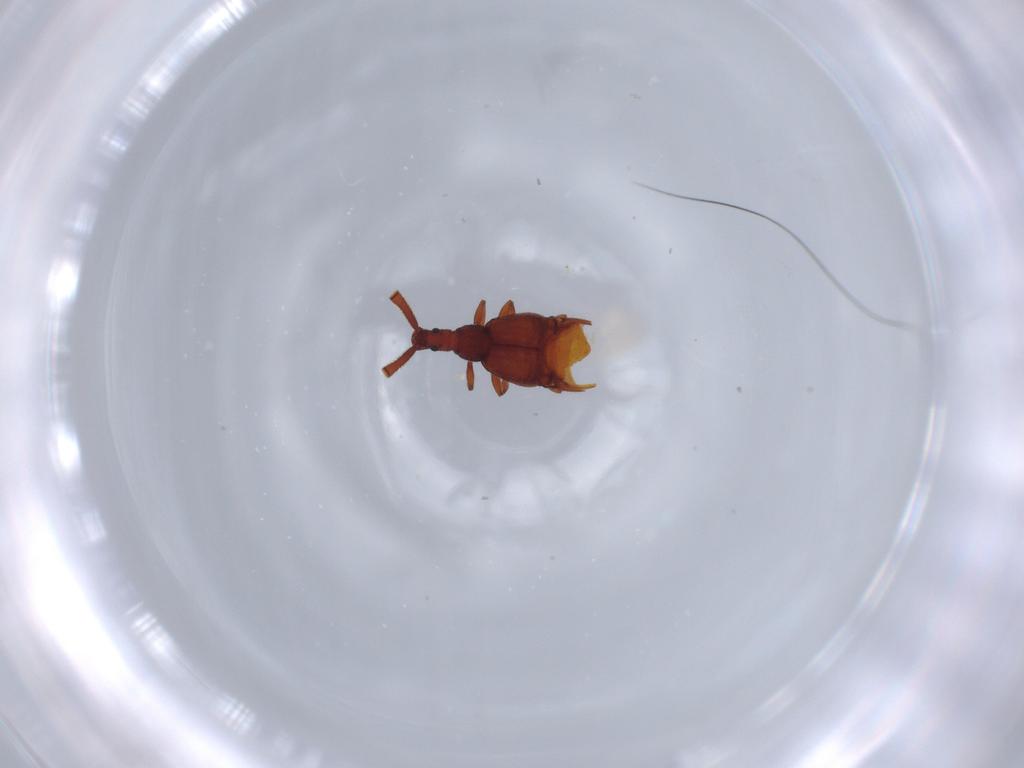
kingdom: Animalia
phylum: Arthropoda
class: Insecta
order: Coleoptera
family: Staphylinidae
